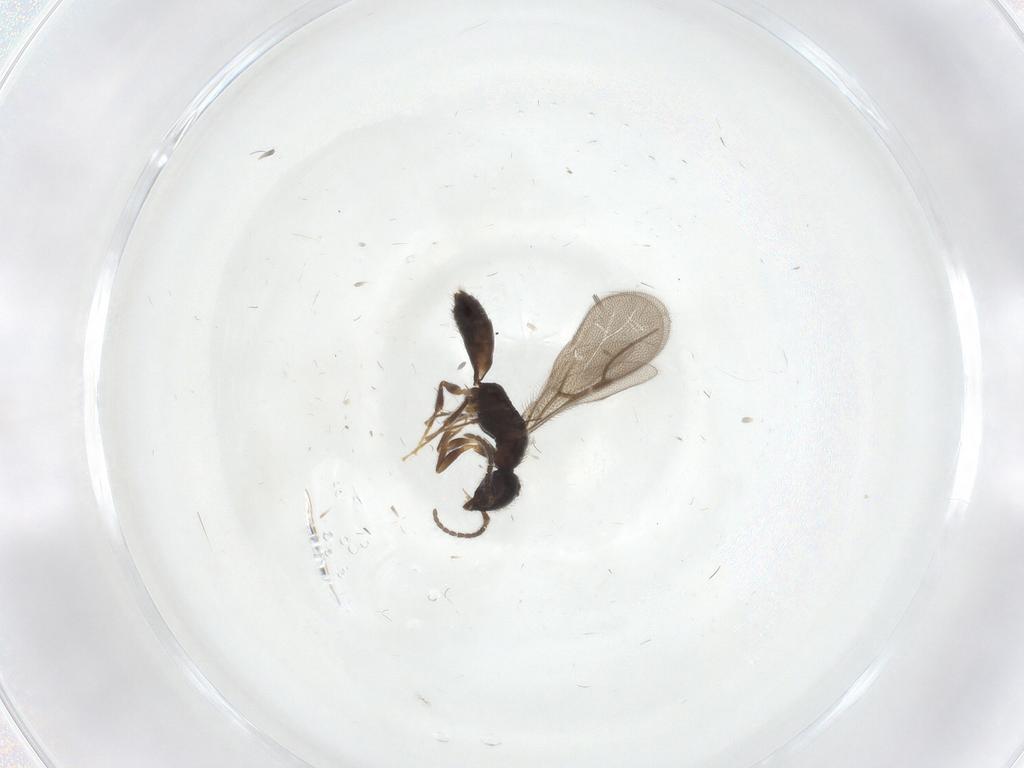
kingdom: Animalia
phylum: Arthropoda
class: Insecta
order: Hymenoptera
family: Bethylidae
